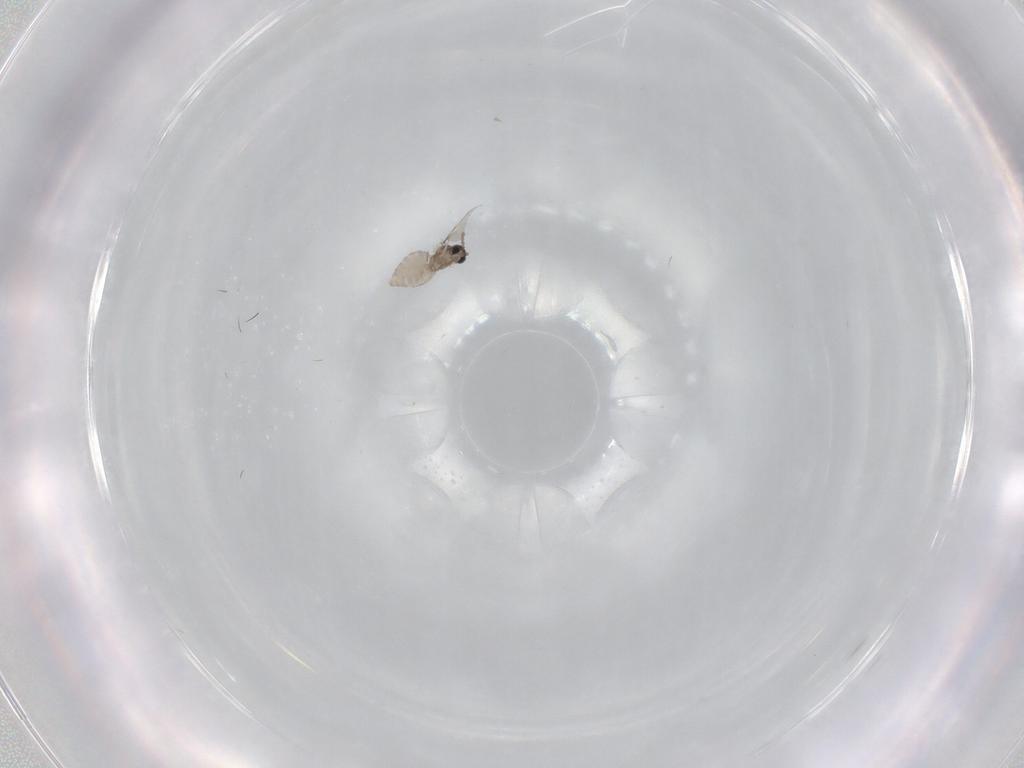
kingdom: Animalia
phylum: Arthropoda
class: Insecta
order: Diptera
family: Cecidomyiidae
